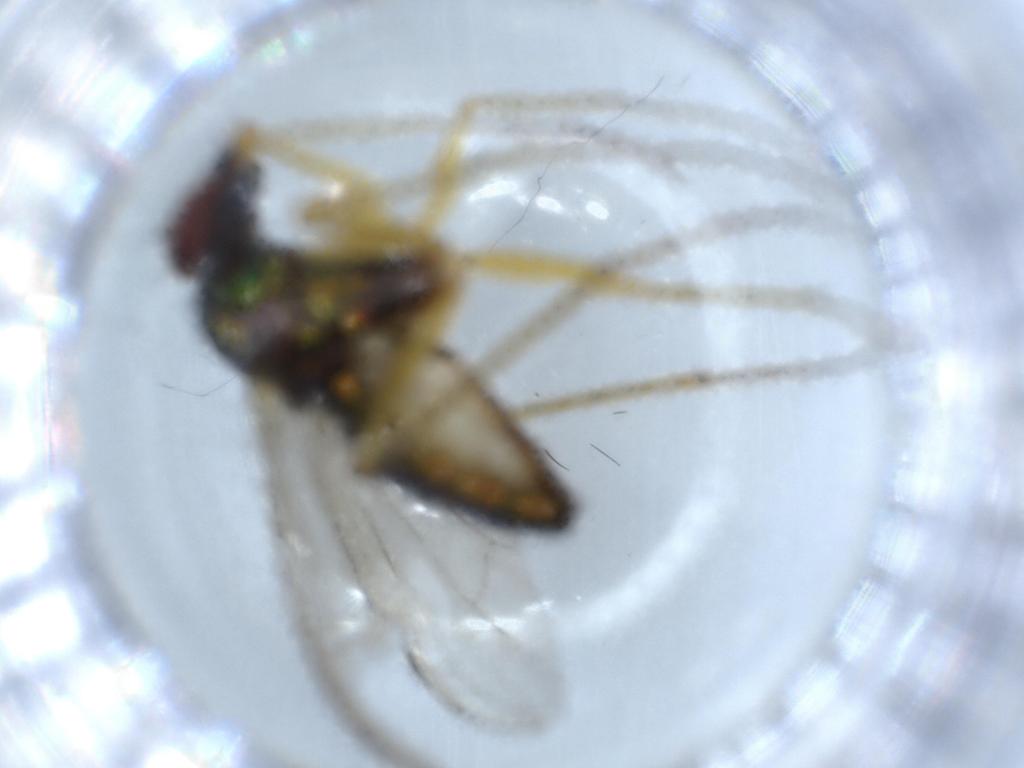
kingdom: Animalia
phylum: Arthropoda
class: Insecta
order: Diptera
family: Dolichopodidae
